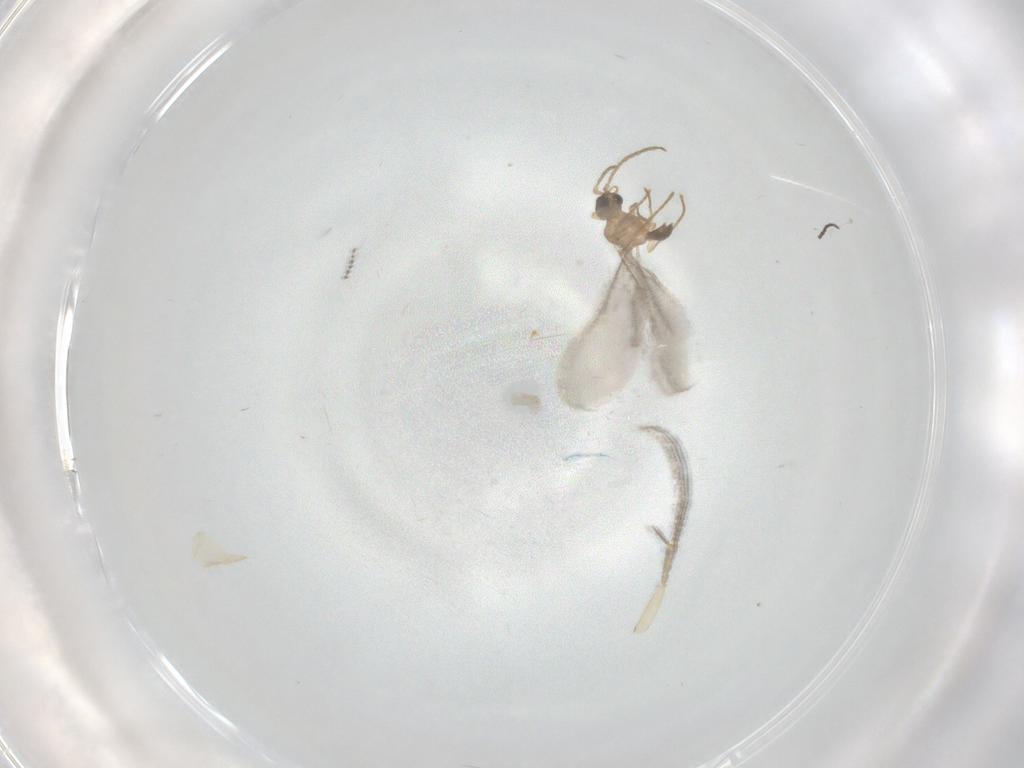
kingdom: Animalia
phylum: Arthropoda
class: Insecta
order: Hymenoptera
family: Formicidae
